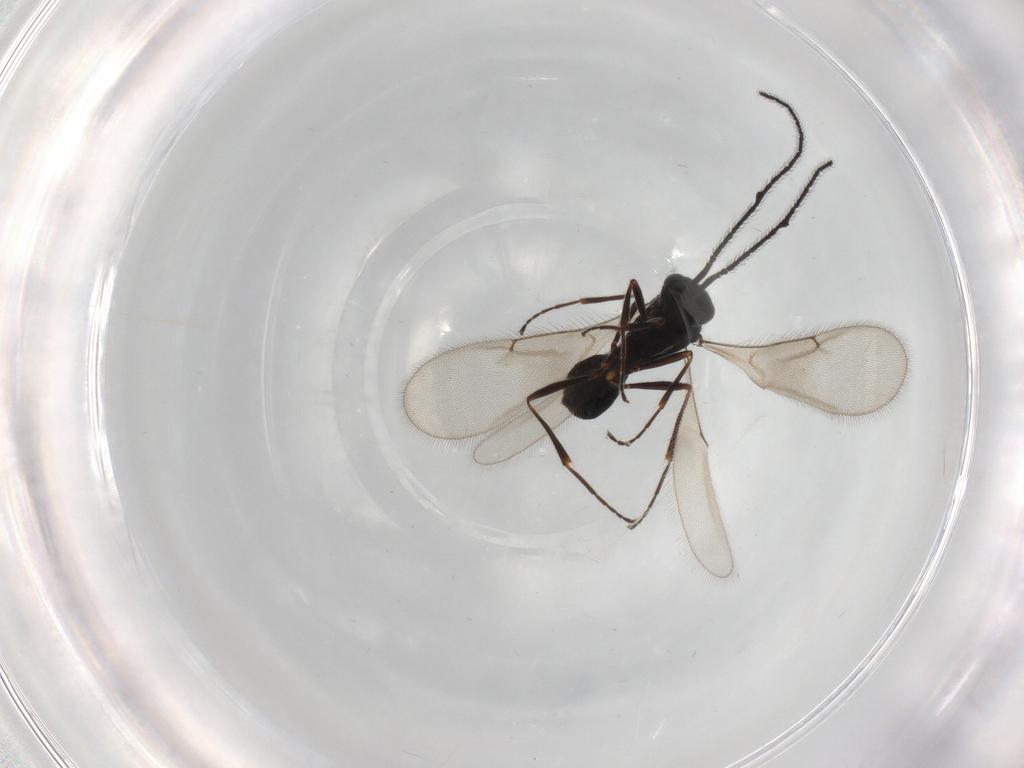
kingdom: Animalia
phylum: Arthropoda
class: Insecta
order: Hymenoptera
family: Scelionidae
